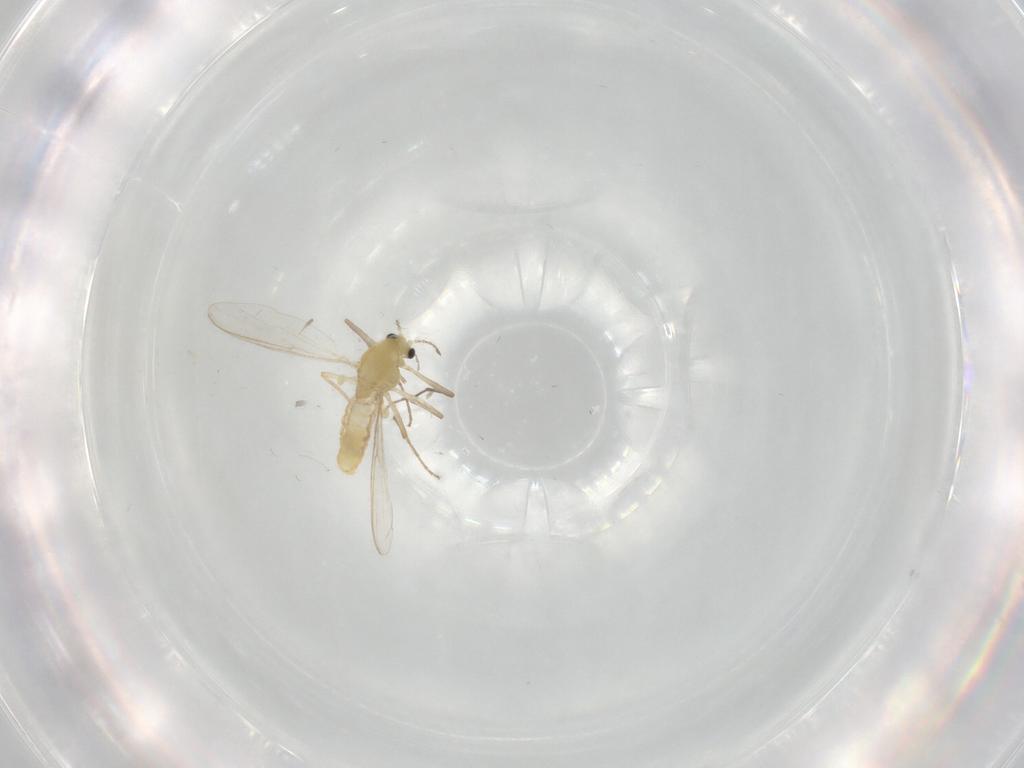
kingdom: Animalia
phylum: Arthropoda
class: Insecta
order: Diptera
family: Chironomidae
